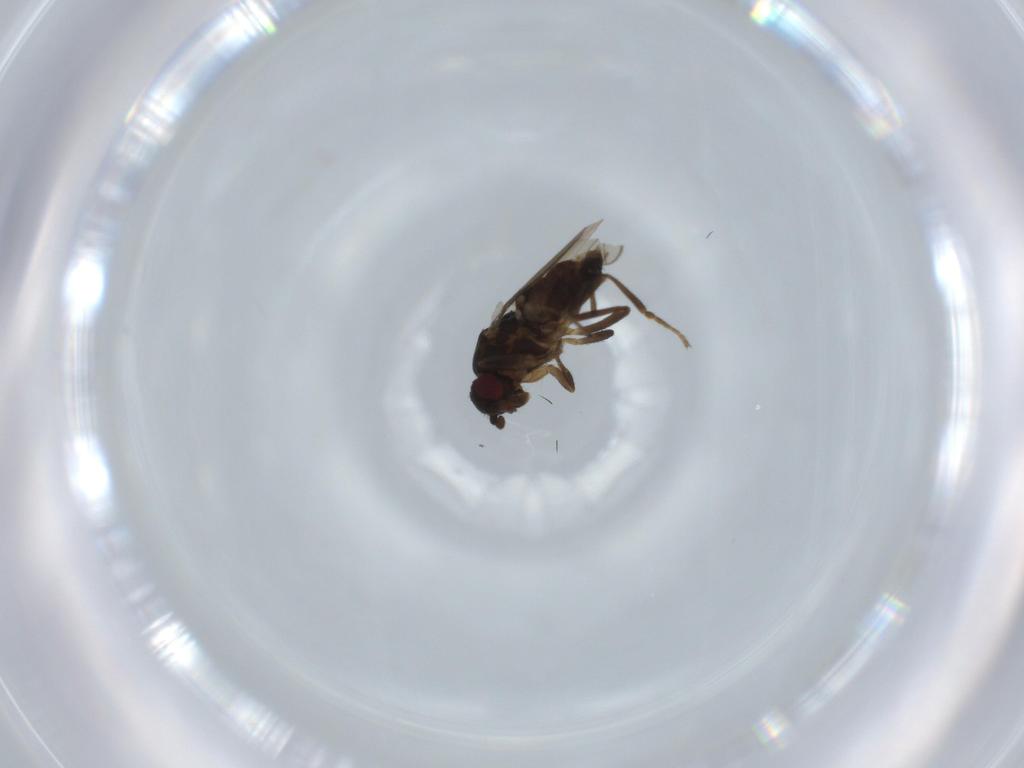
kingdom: Animalia
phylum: Arthropoda
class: Insecta
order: Diptera
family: Sphaeroceridae
